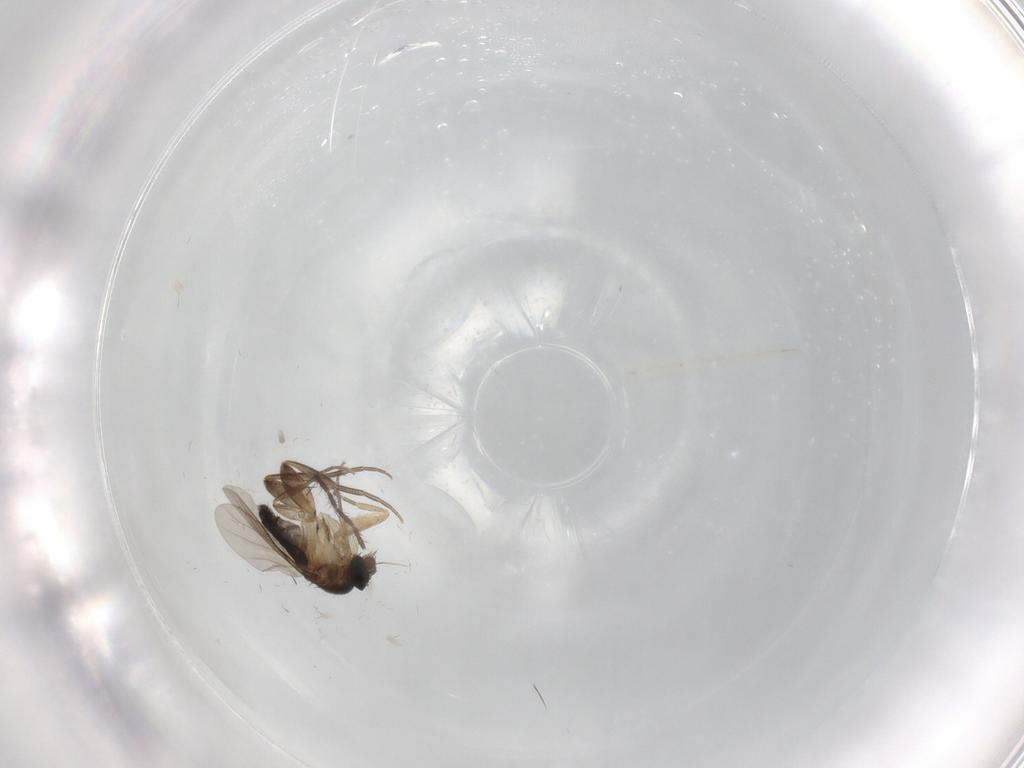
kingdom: Animalia
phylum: Arthropoda
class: Insecta
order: Diptera
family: Phoridae
